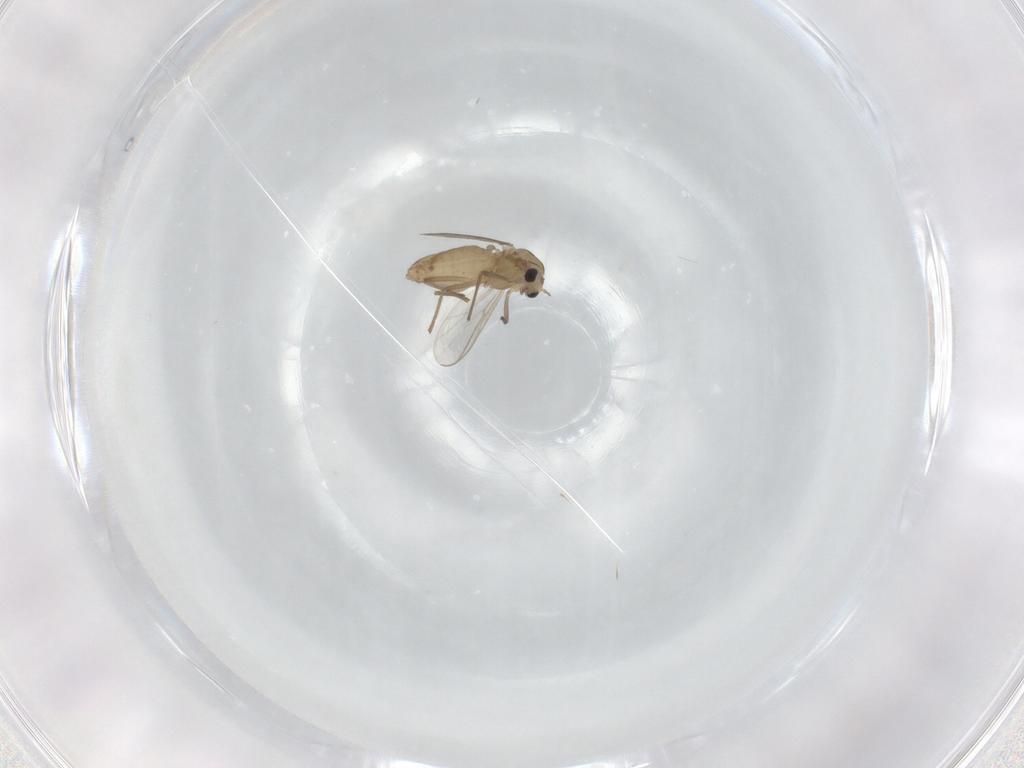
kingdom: Animalia
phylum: Arthropoda
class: Insecta
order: Diptera
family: Chironomidae
